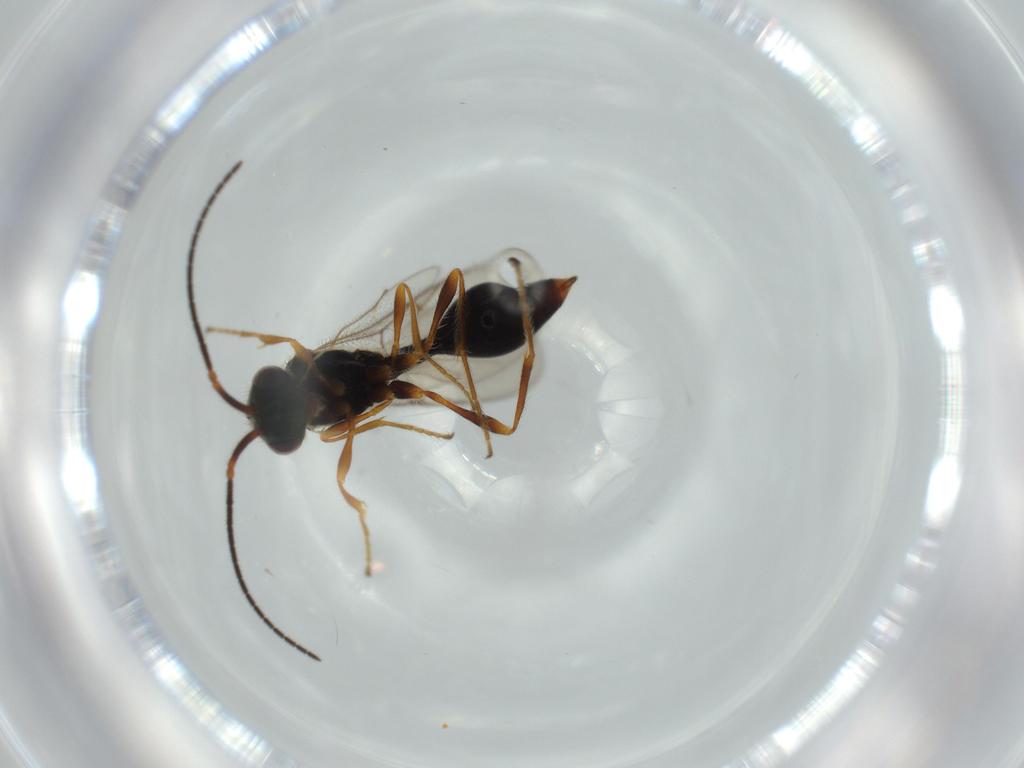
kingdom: Animalia
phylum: Arthropoda
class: Insecta
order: Hymenoptera
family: Diapriidae
